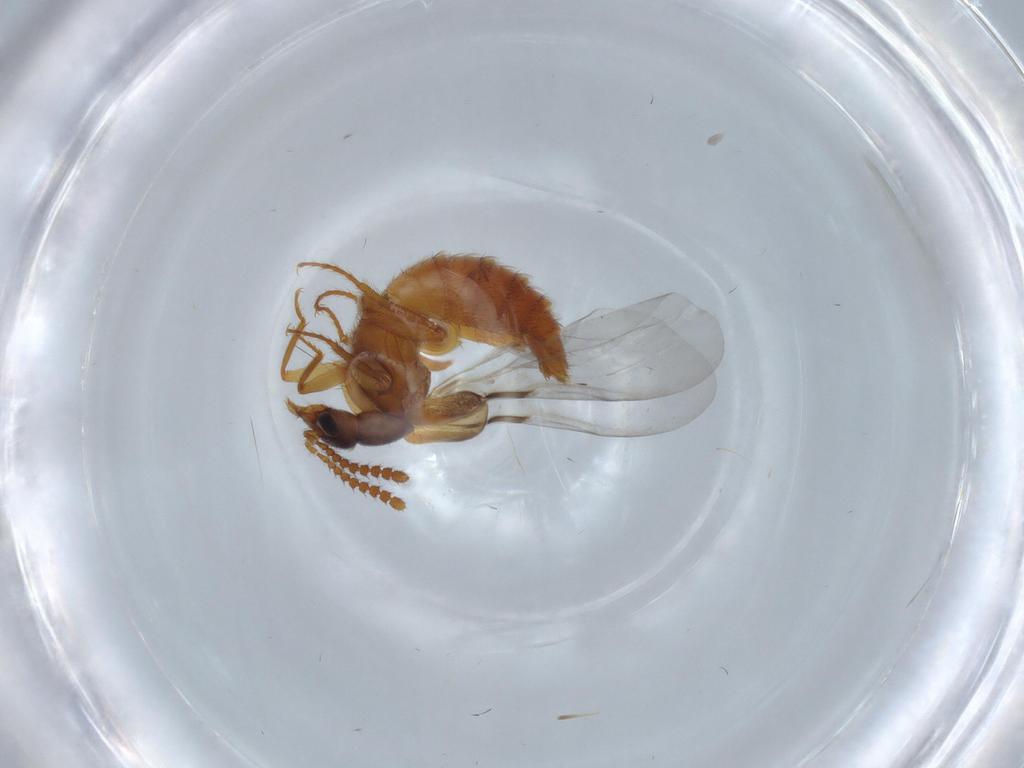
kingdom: Animalia
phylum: Arthropoda
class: Insecta
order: Coleoptera
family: Staphylinidae
